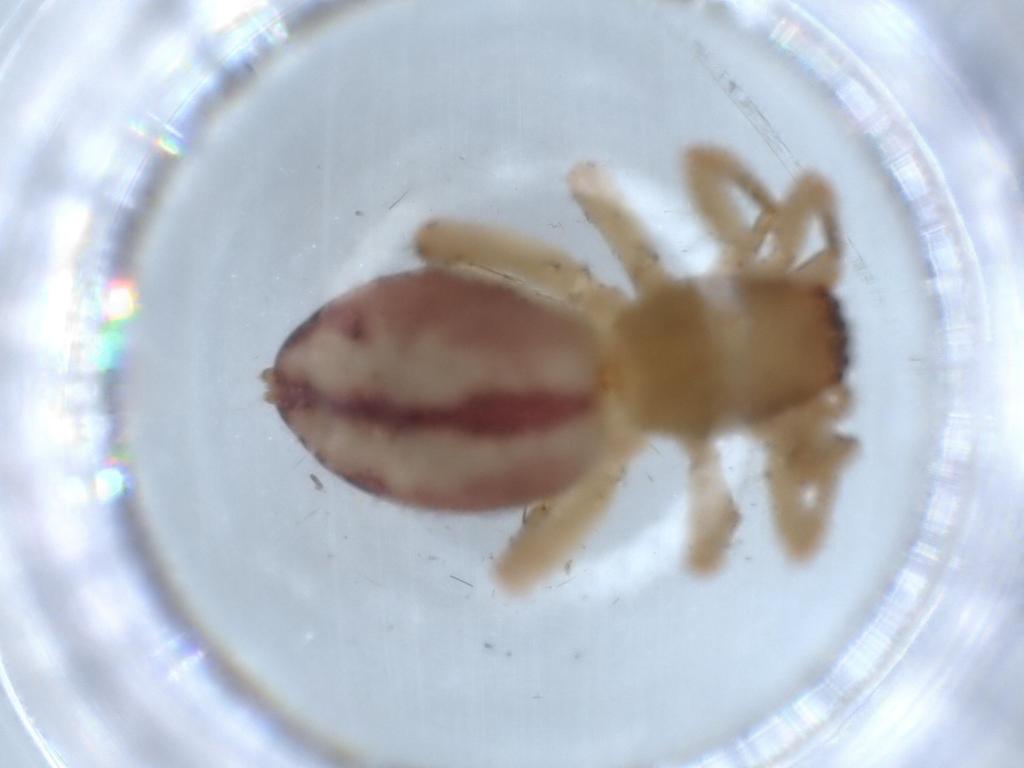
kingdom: Animalia
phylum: Arthropoda
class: Arachnida
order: Araneae
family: Clubionidae
